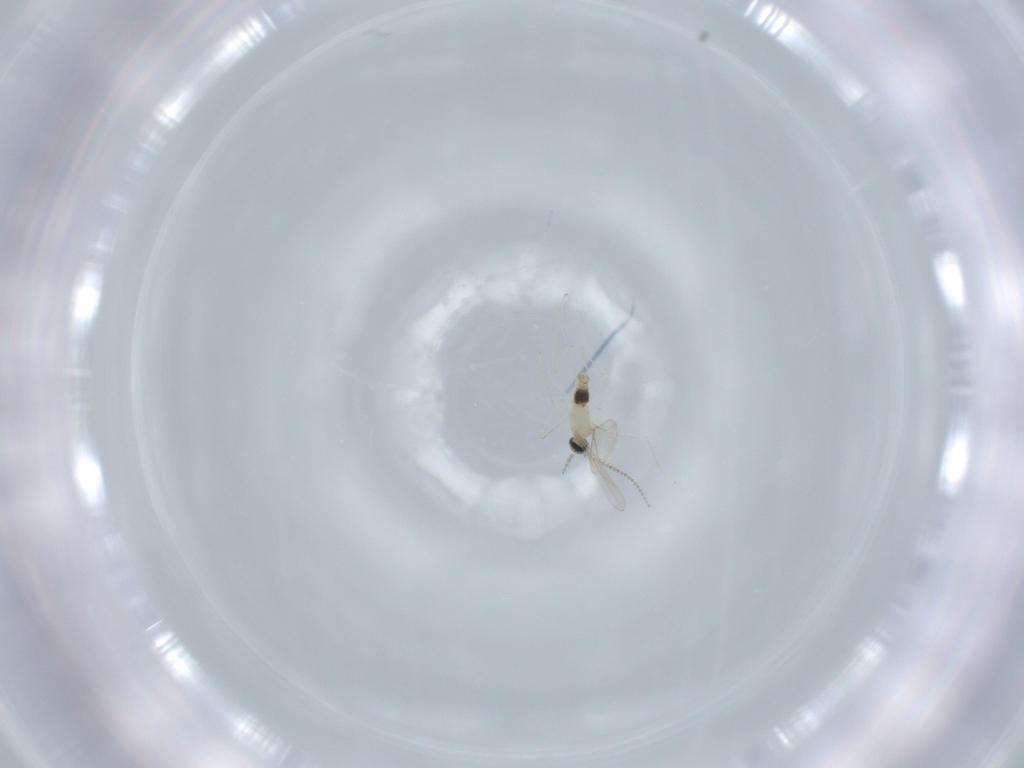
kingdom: Animalia
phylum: Arthropoda
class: Insecta
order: Diptera
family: Cecidomyiidae
